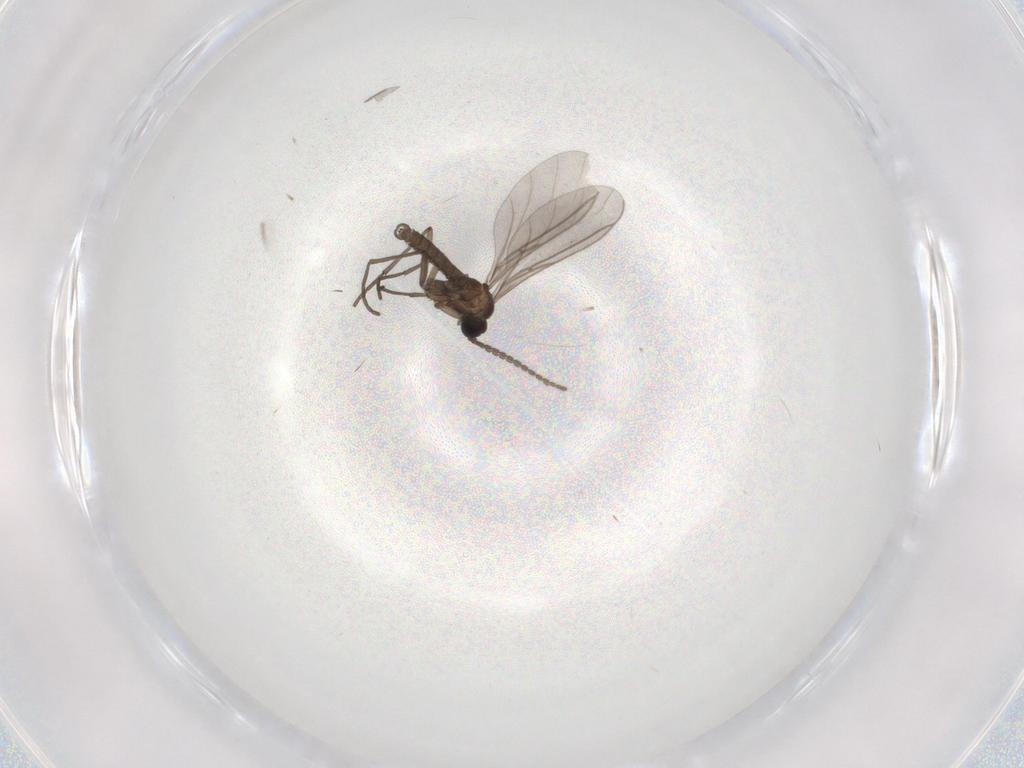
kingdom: Animalia
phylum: Arthropoda
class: Insecta
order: Diptera
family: Sciaridae
